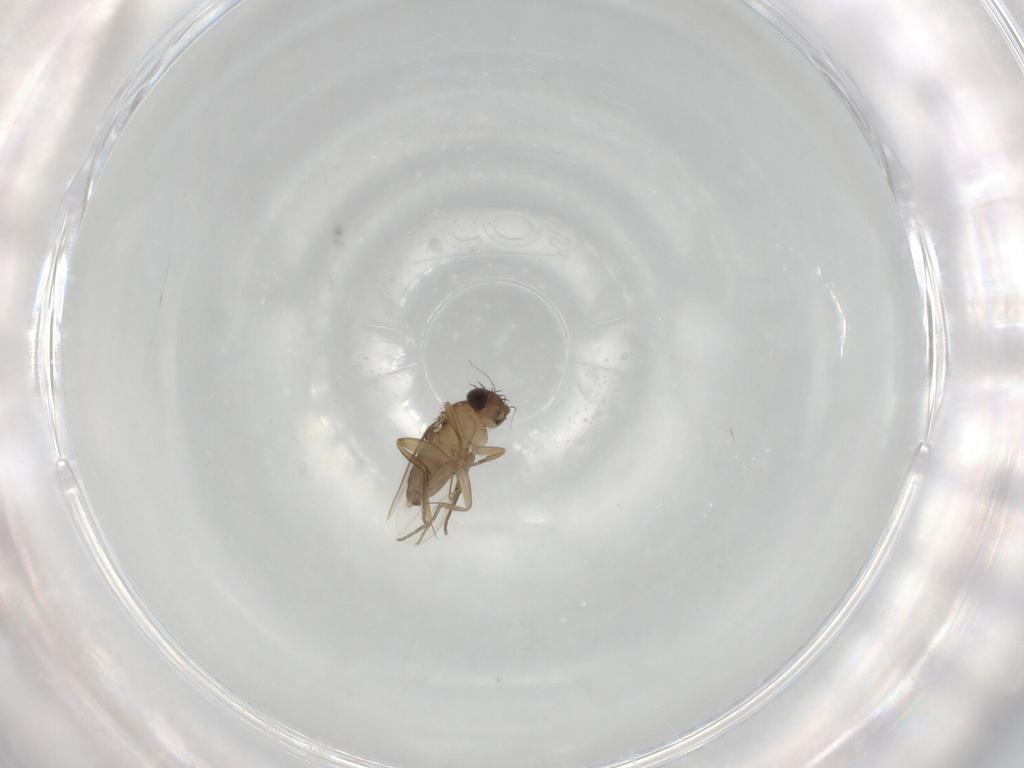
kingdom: Animalia
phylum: Arthropoda
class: Insecta
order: Diptera
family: Phoridae
